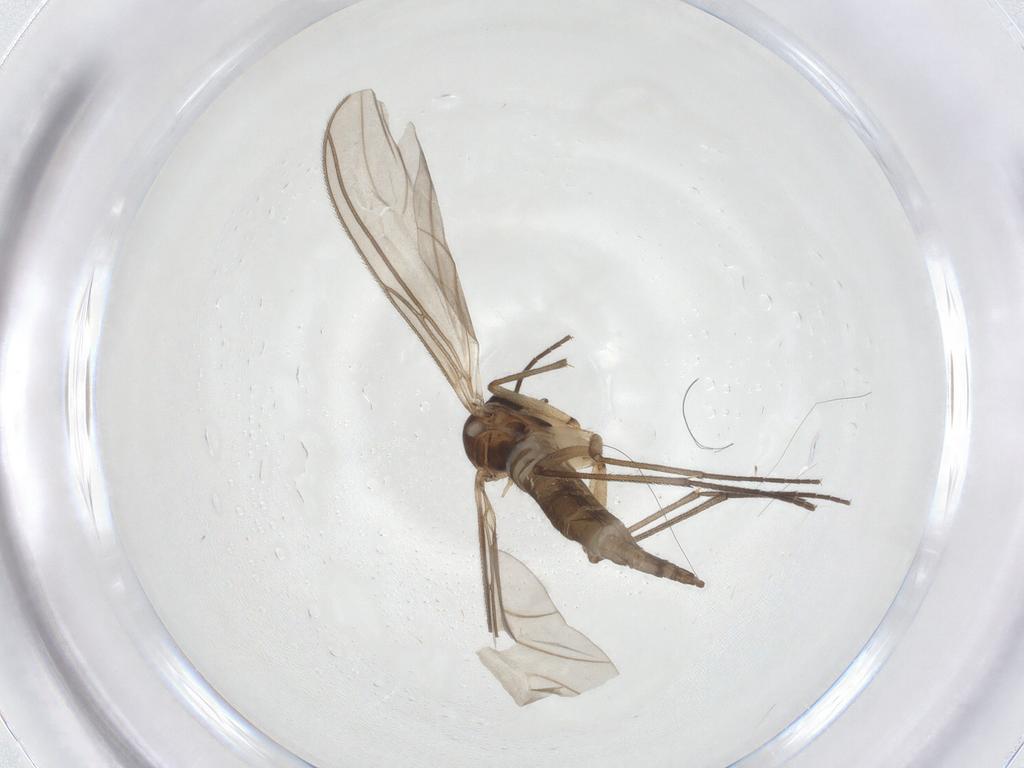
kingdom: Animalia
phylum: Arthropoda
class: Insecta
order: Diptera
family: Sciaridae
